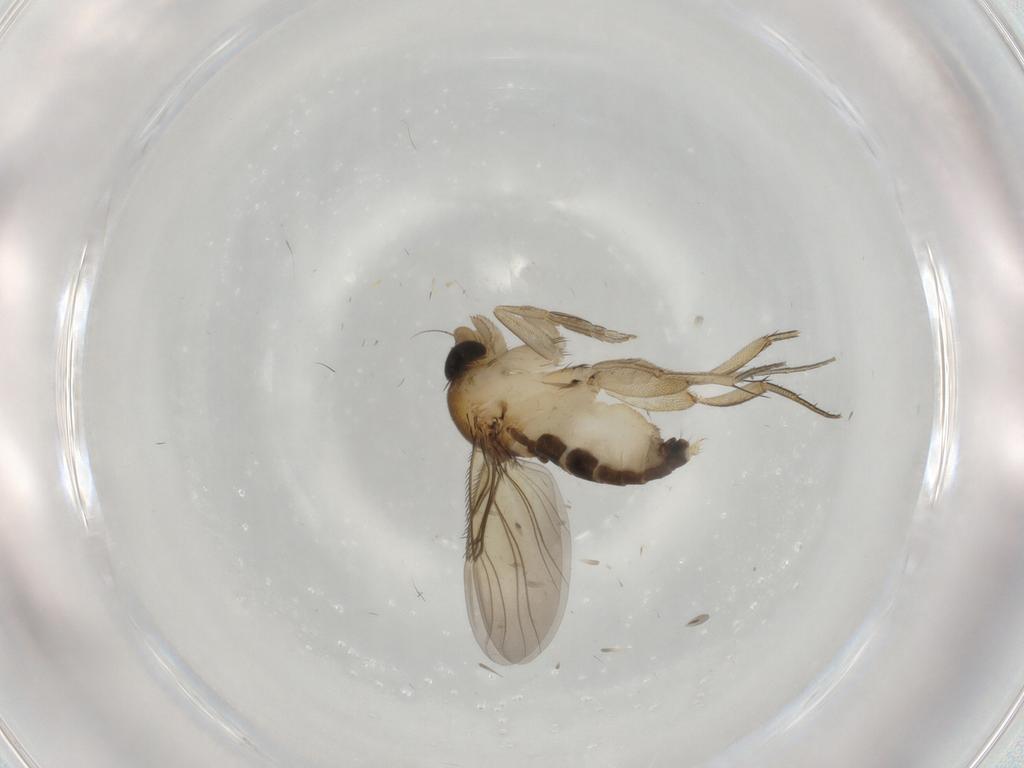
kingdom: Animalia
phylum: Arthropoda
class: Insecta
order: Diptera
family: Phoridae
